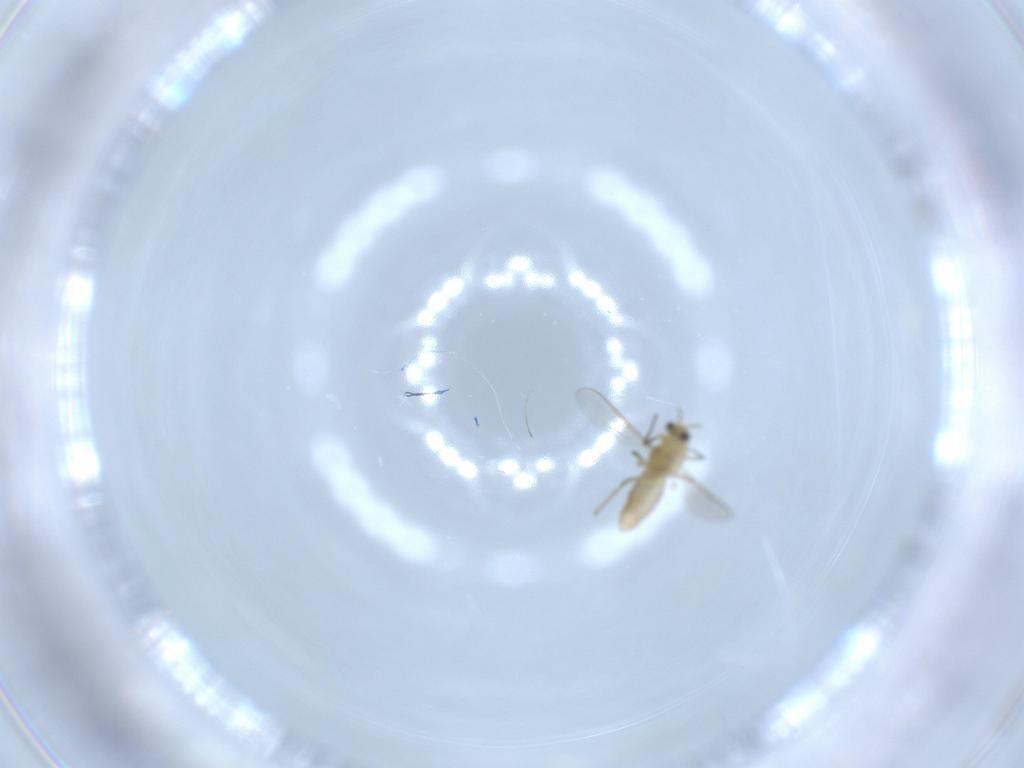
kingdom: Animalia
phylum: Arthropoda
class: Insecta
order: Diptera
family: Chironomidae
